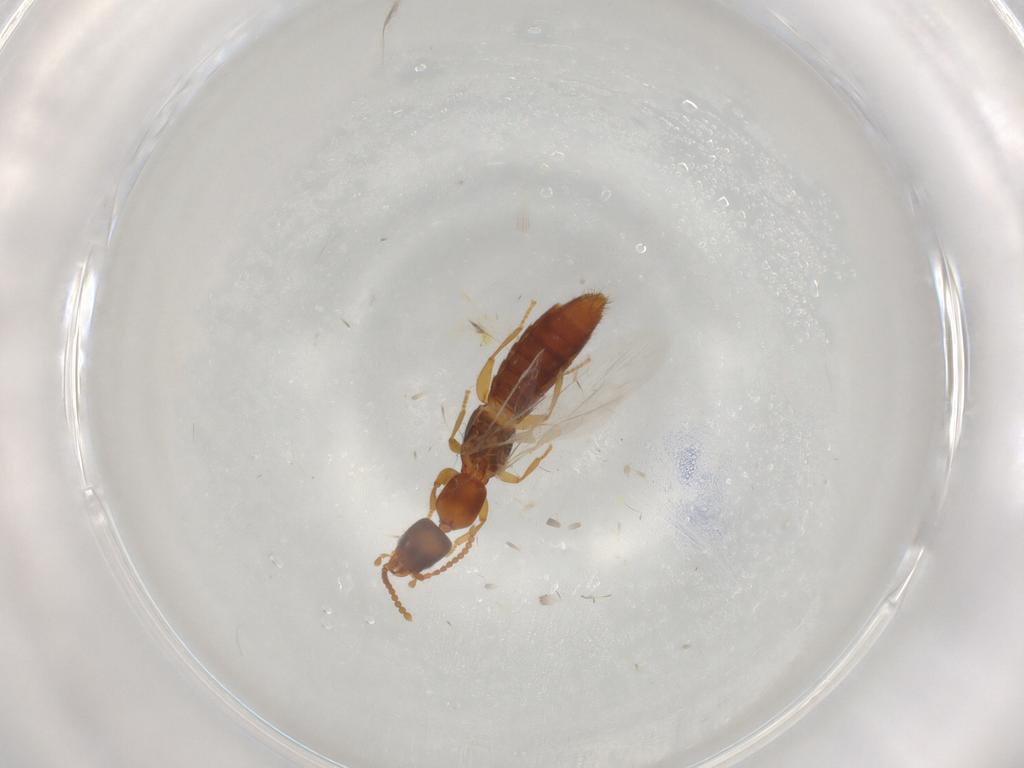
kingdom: Animalia
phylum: Arthropoda
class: Insecta
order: Coleoptera
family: Staphylinidae
